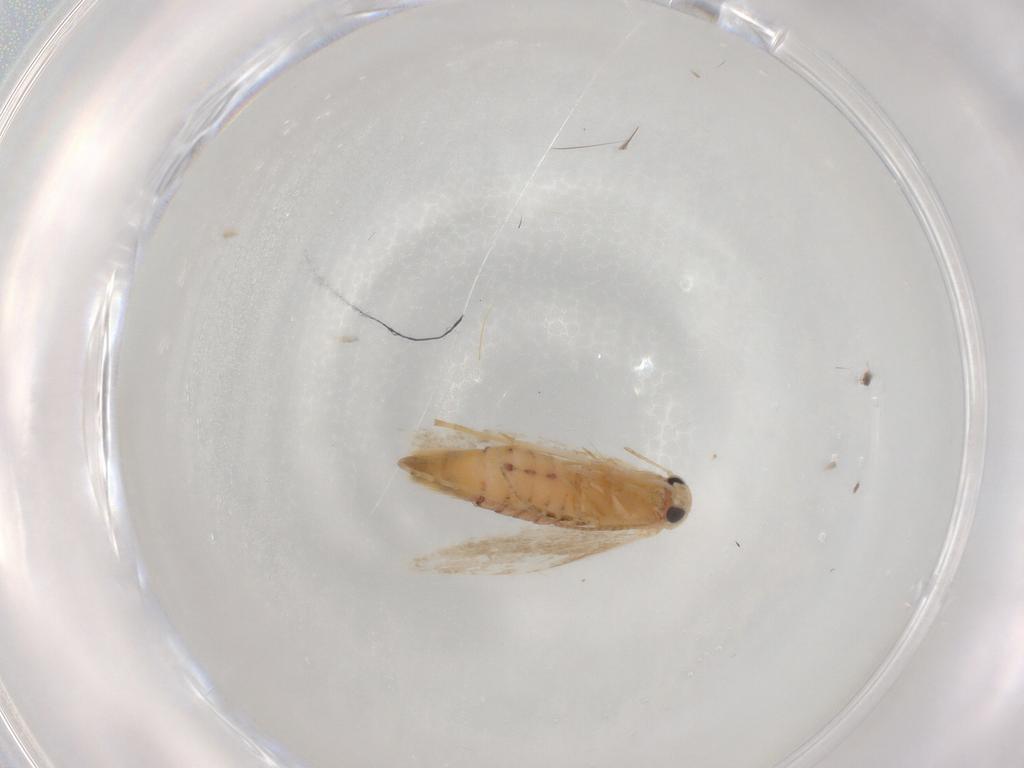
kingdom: Animalia
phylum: Arthropoda
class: Insecta
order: Lepidoptera
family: Bucculatricidae
